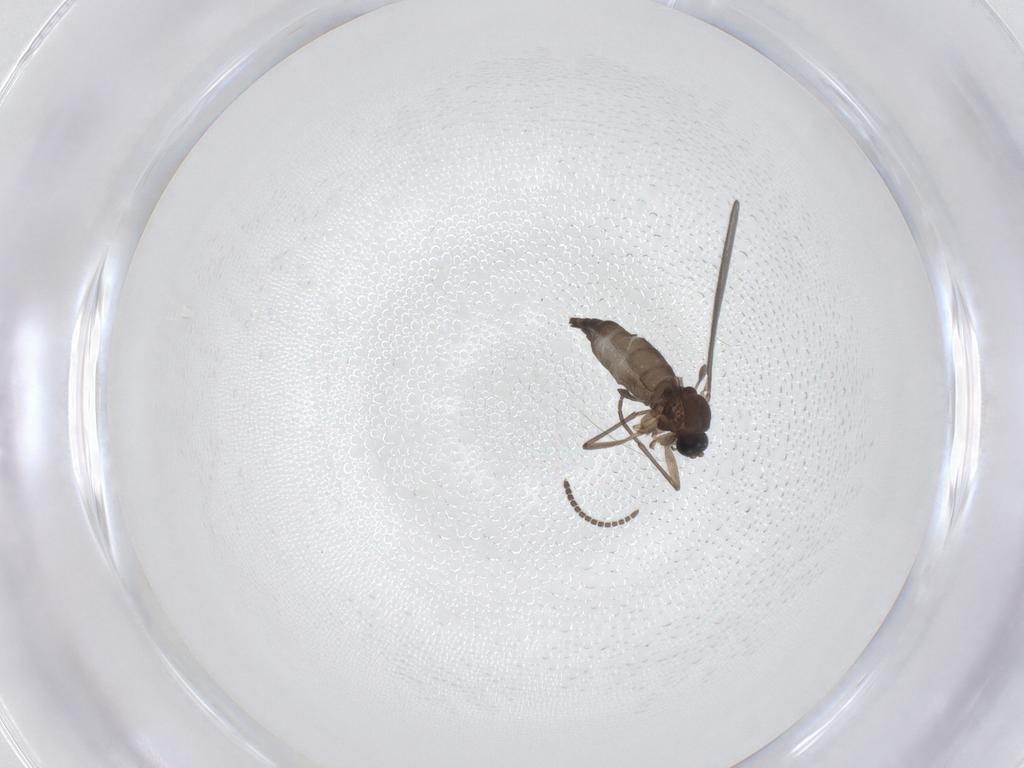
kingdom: Animalia
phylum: Arthropoda
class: Insecta
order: Diptera
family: Sciaridae
